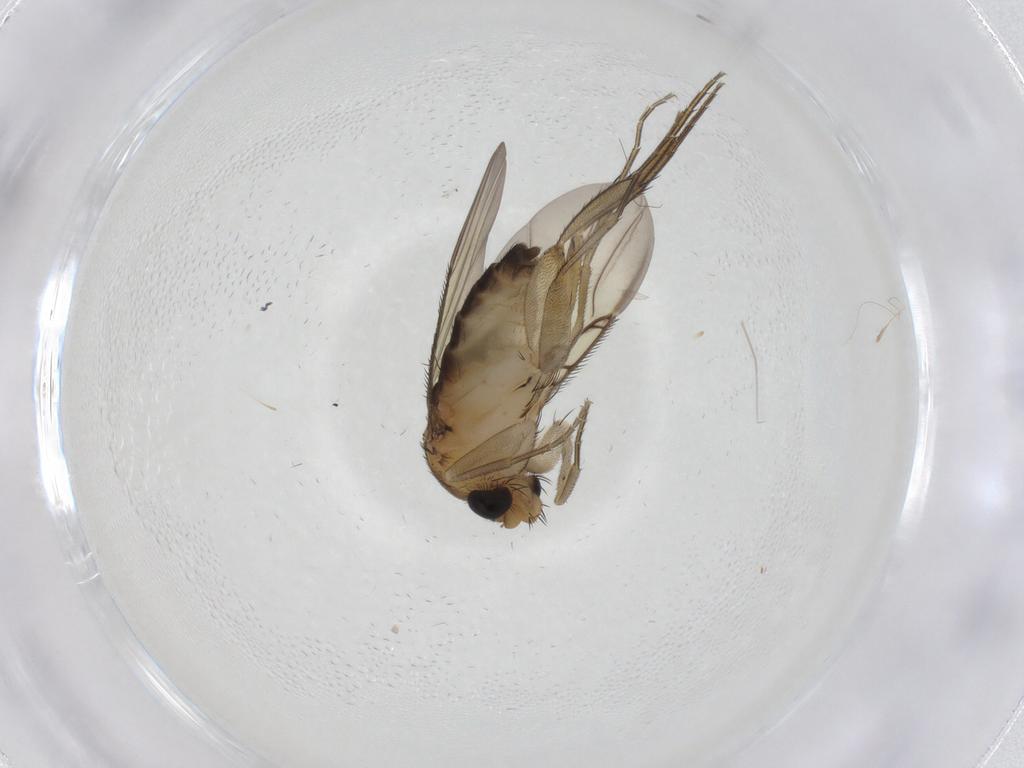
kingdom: Animalia
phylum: Arthropoda
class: Insecta
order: Diptera
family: Phoridae
